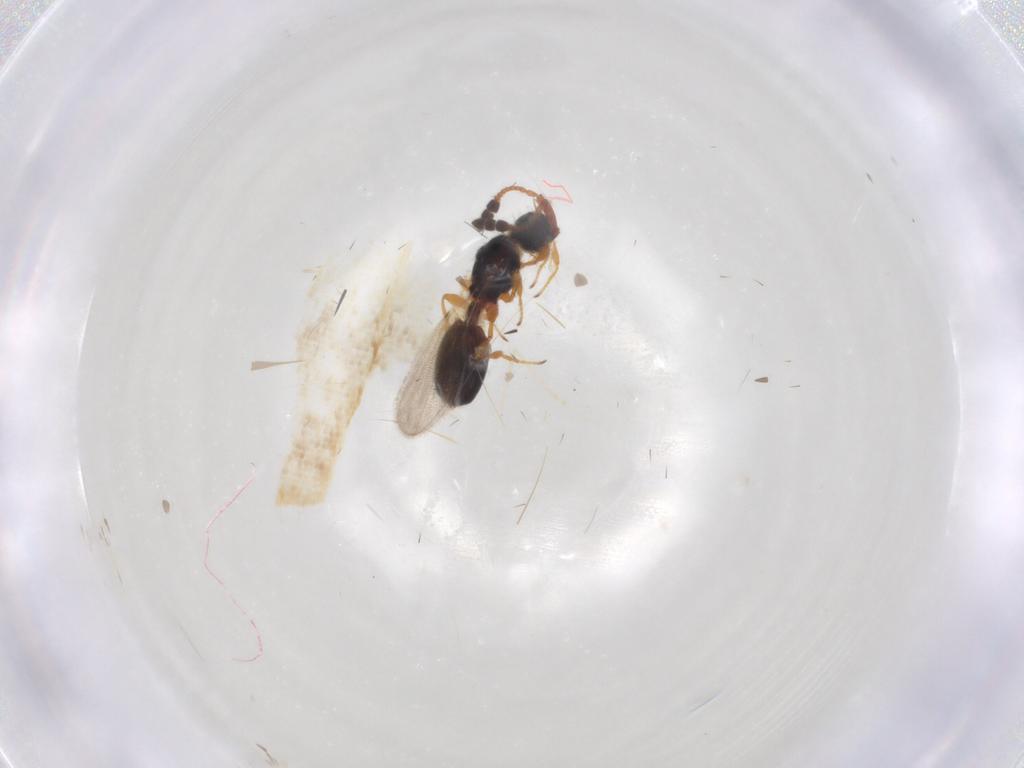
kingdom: Animalia
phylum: Arthropoda
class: Insecta
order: Hymenoptera
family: Diapriidae
